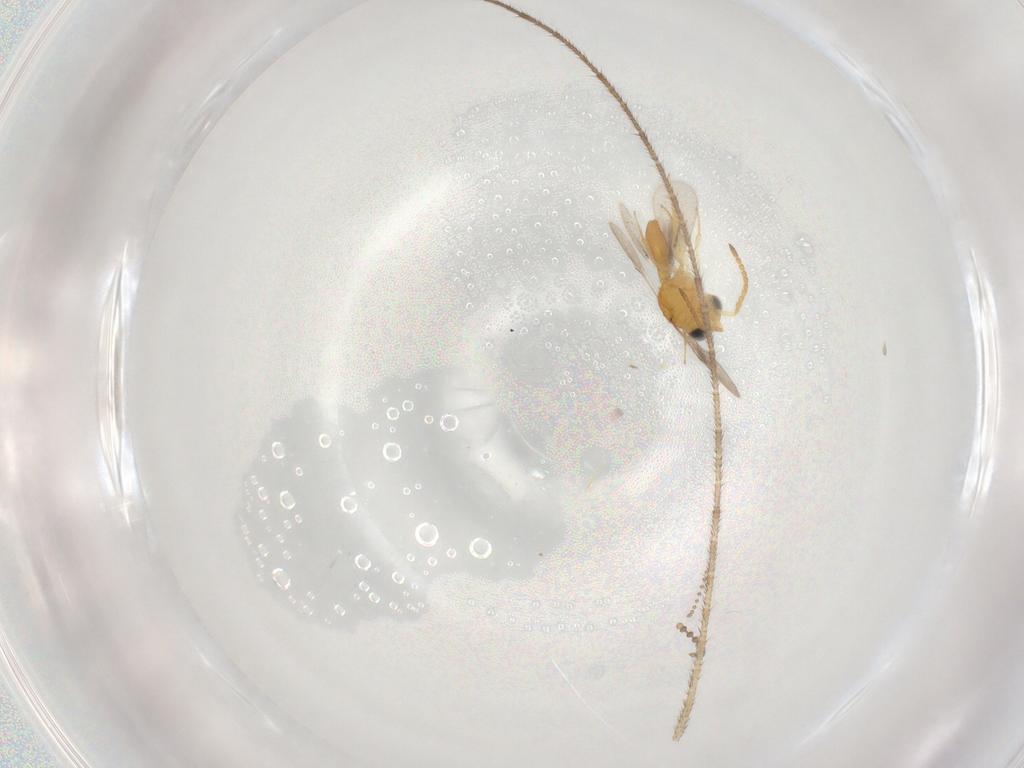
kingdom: Animalia
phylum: Arthropoda
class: Insecta
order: Hymenoptera
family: Scelionidae
